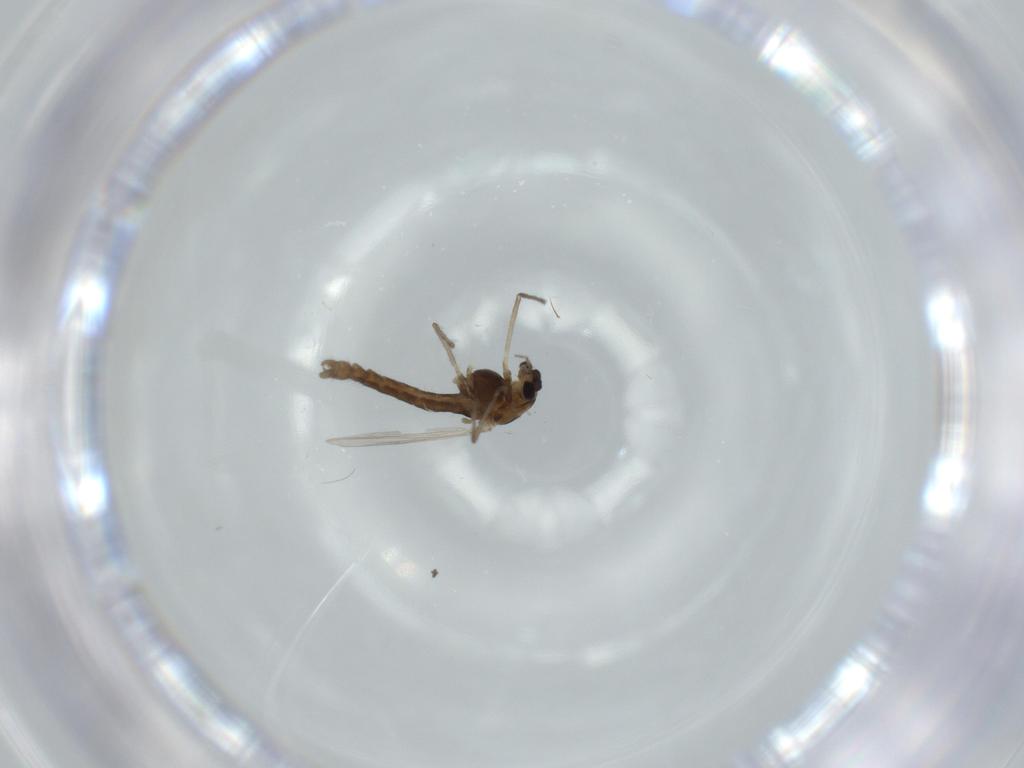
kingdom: Animalia
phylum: Arthropoda
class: Insecta
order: Diptera
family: Chironomidae
